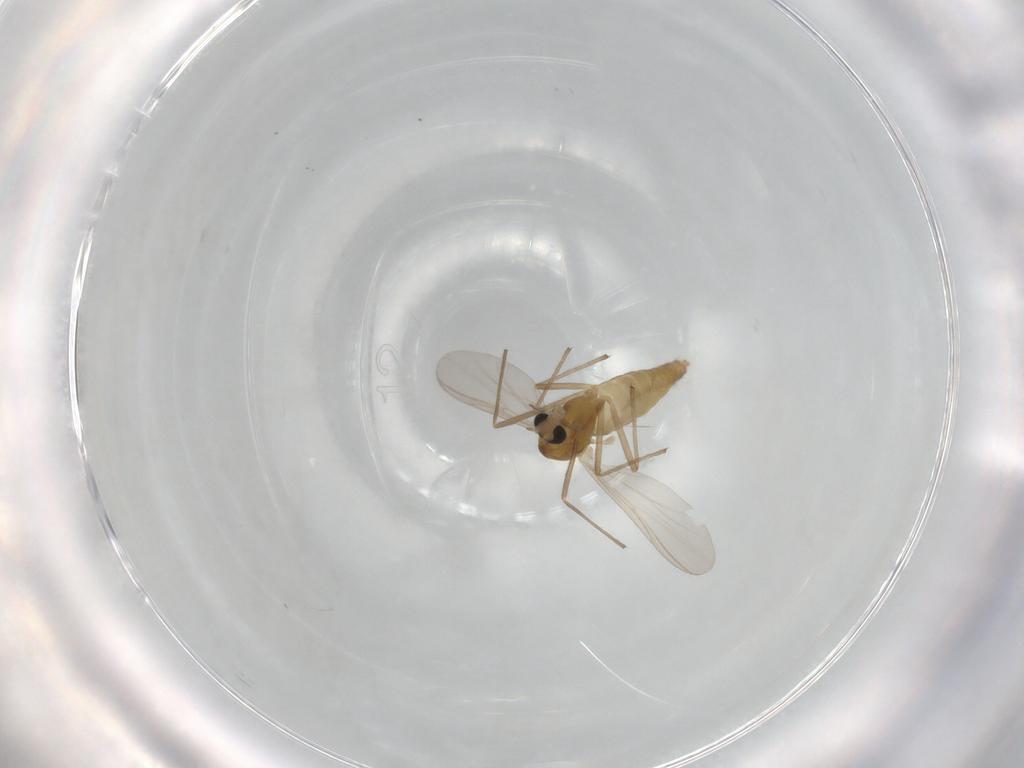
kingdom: Animalia
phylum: Arthropoda
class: Insecta
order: Diptera
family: Chironomidae
